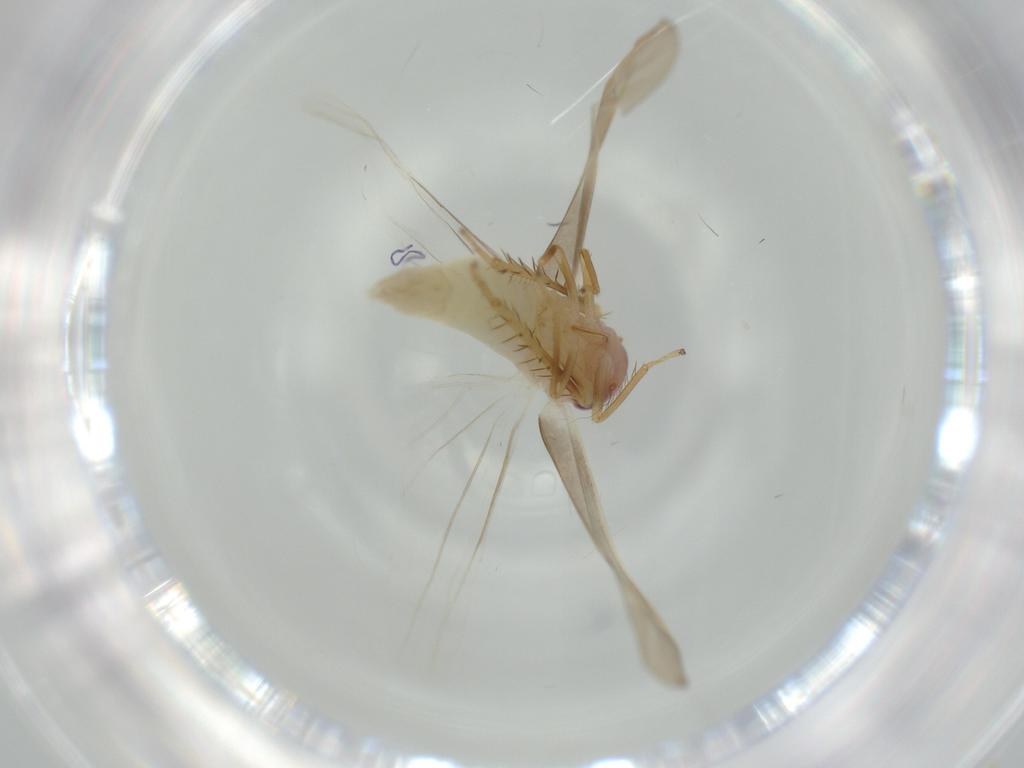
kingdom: Animalia
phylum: Arthropoda
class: Insecta
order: Hemiptera
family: Cicadellidae
